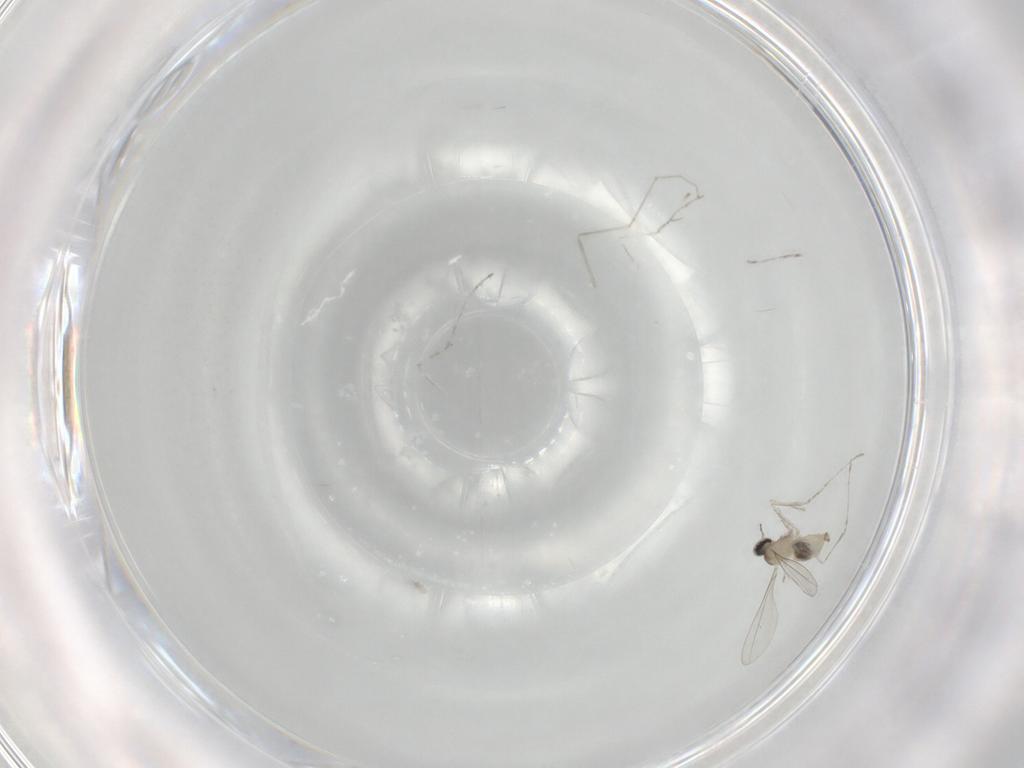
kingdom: Animalia
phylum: Arthropoda
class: Insecta
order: Diptera
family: Cecidomyiidae
